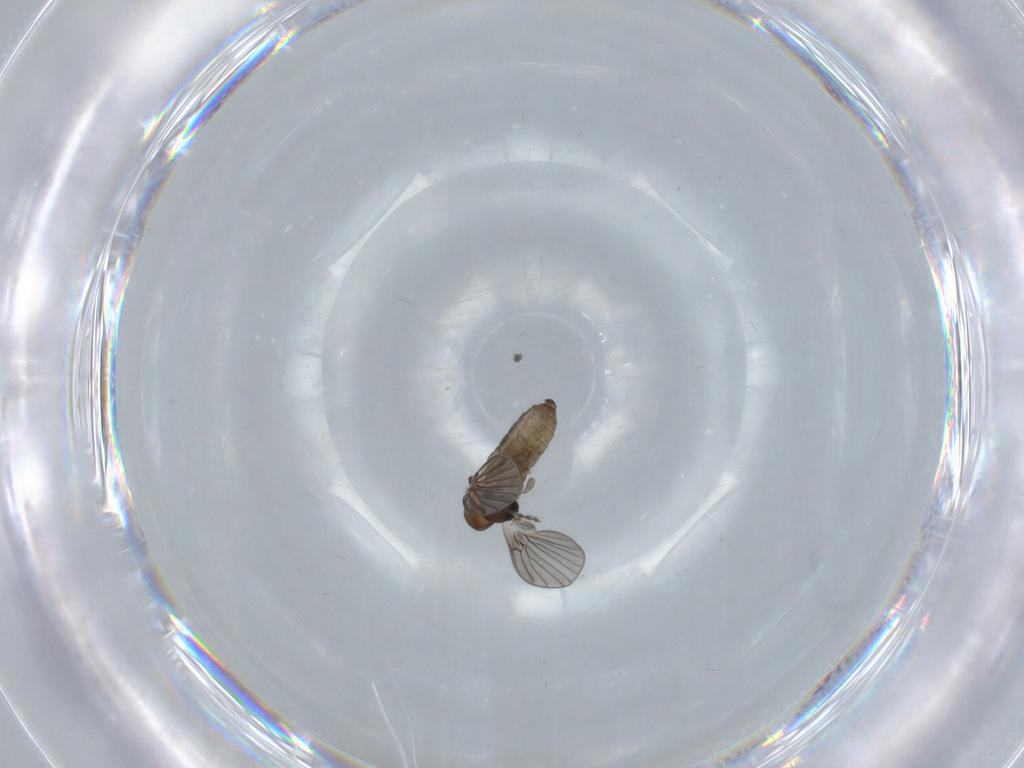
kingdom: Animalia
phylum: Arthropoda
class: Insecta
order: Diptera
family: Psychodidae
